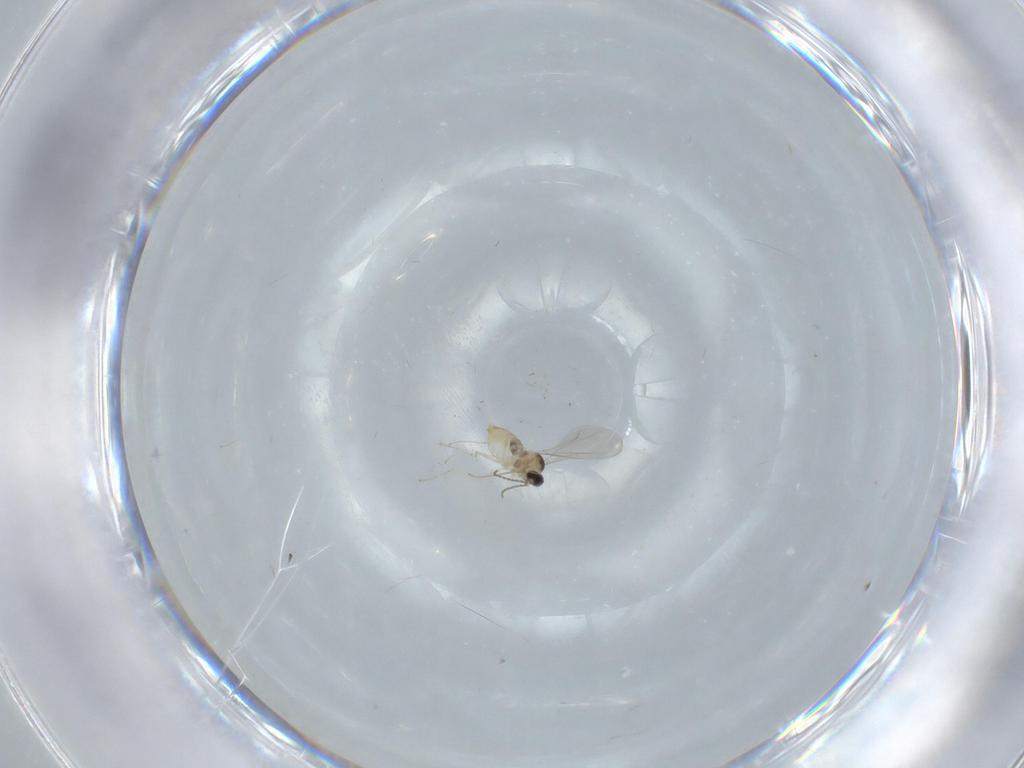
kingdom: Animalia
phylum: Arthropoda
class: Insecta
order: Diptera
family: Cecidomyiidae
